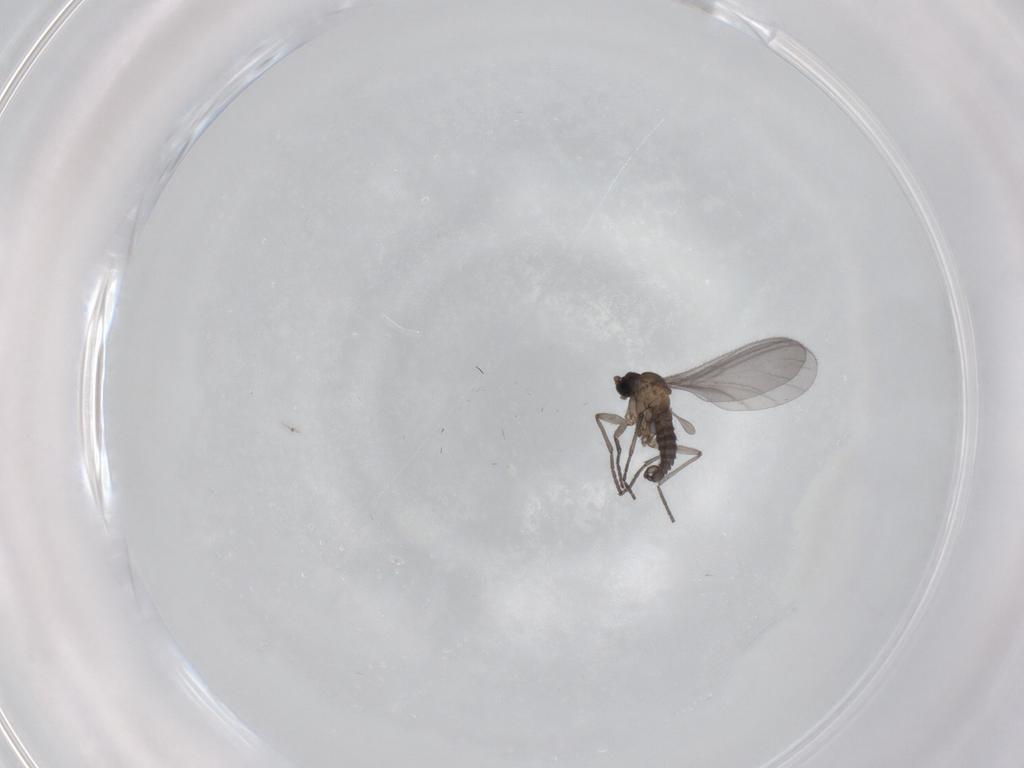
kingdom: Animalia
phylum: Arthropoda
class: Insecta
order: Diptera
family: Sciaridae
